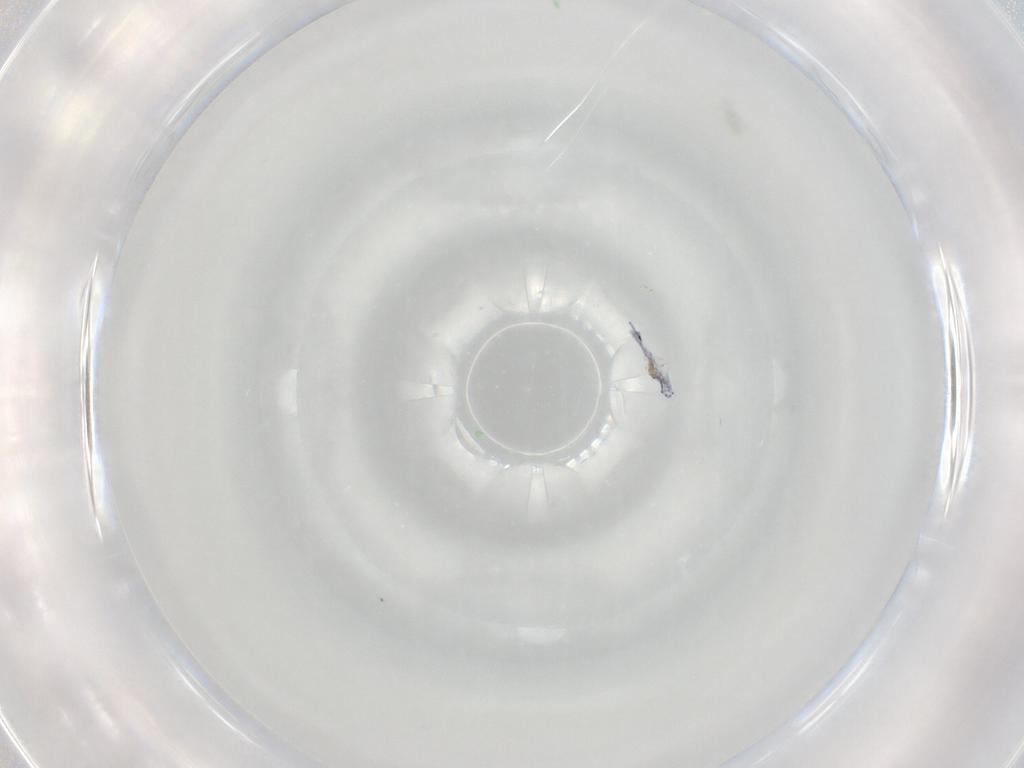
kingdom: Animalia
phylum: Arthropoda
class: Collembola
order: Entomobryomorpha
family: Entomobryidae
